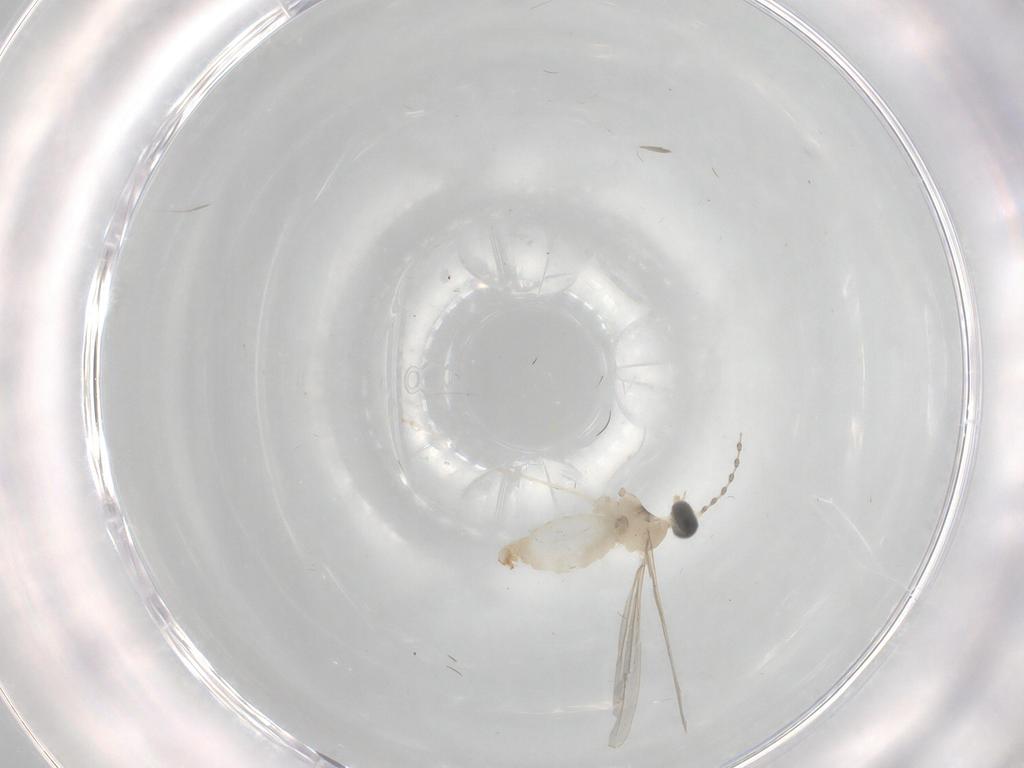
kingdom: Animalia
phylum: Arthropoda
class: Insecta
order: Diptera
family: Cecidomyiidae
